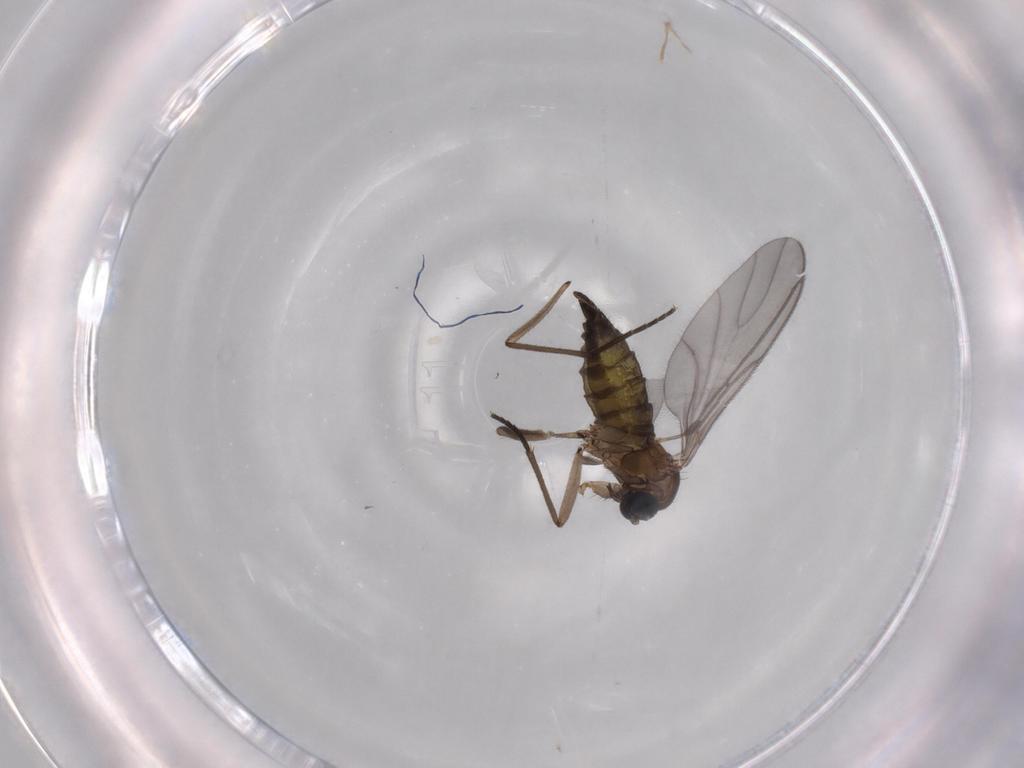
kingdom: Animalia
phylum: Arthropoda
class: Insecta
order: Diptera
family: Sciaridae
